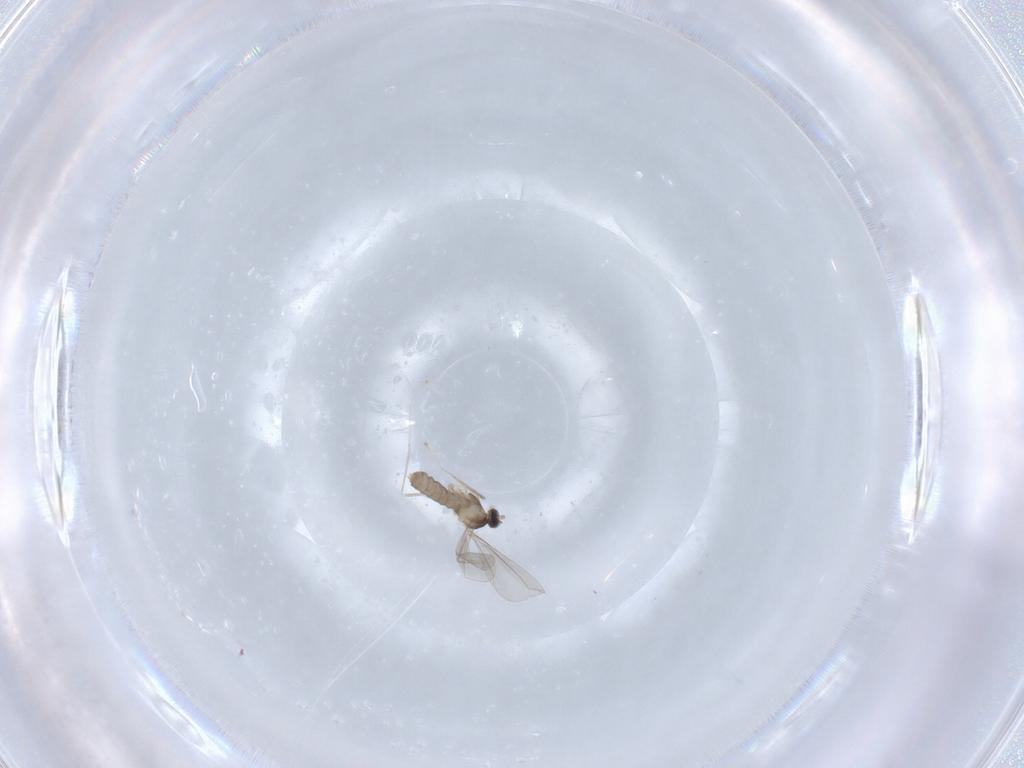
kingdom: Animalia
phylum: Arthropoda
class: Insecta
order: Diptera
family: Cecidomyiidae
